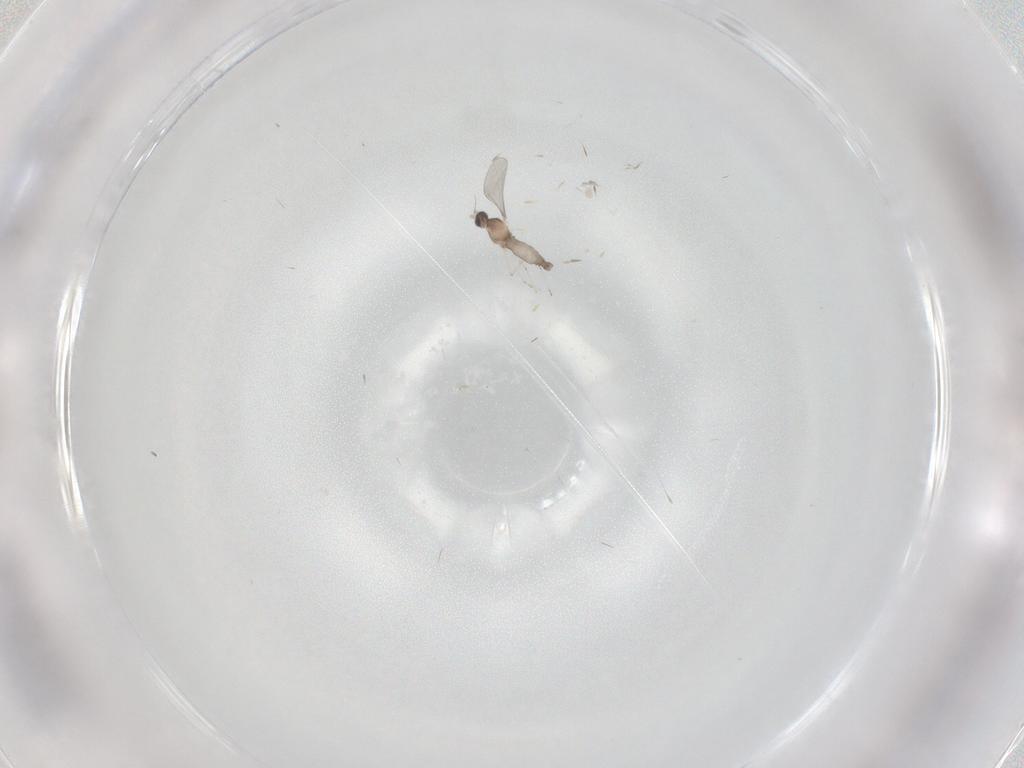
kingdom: Animalia
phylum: Arthropoda
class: Insecta
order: Diptera
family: Cecidomyiidae
